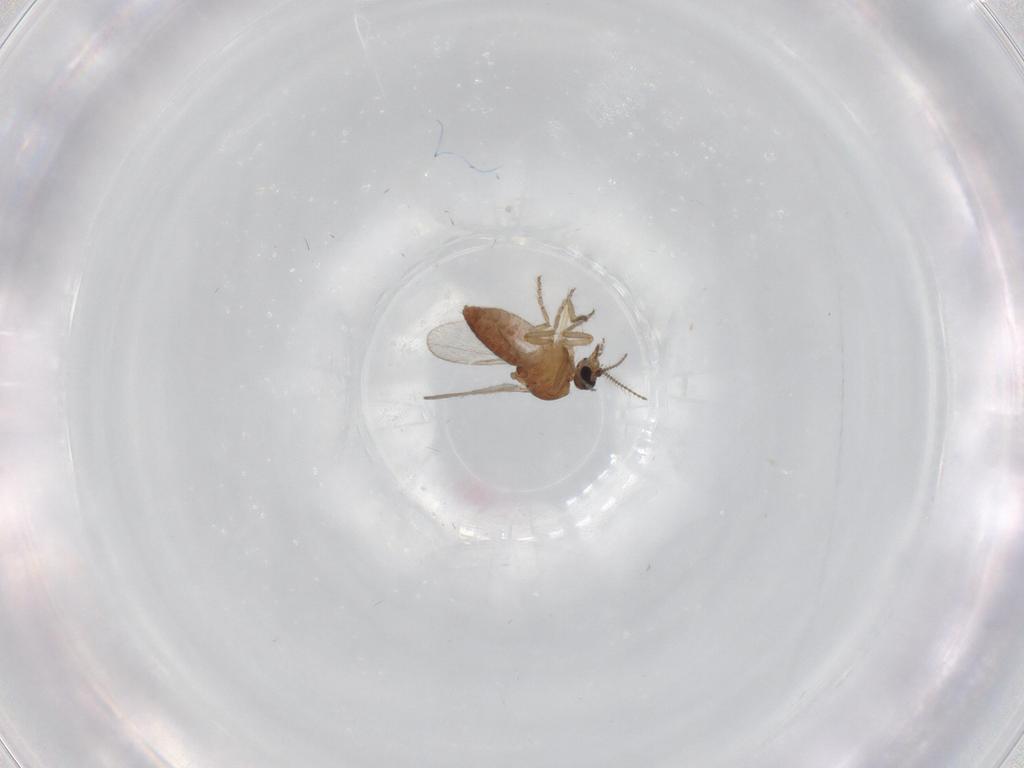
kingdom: Animalia
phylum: Arthropoda
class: Insecta
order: Diptera
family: Ceratopogonidae
